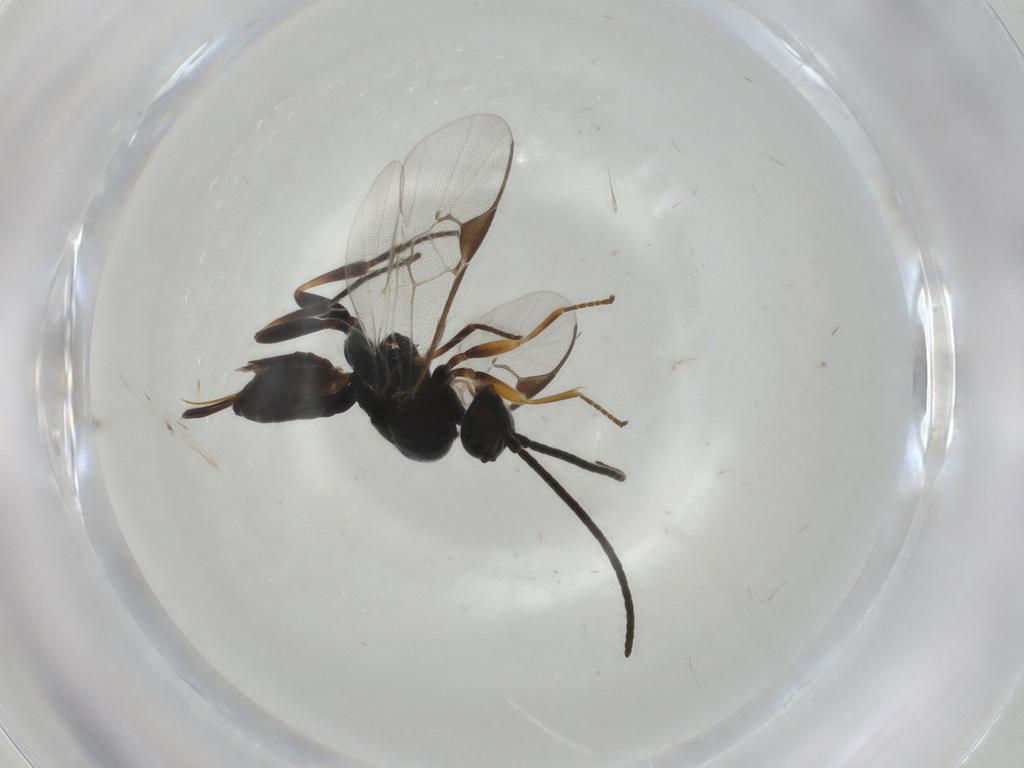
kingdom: Animalia
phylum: Arthropoda
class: Insecta
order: Hymenoptera
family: Braconidae
